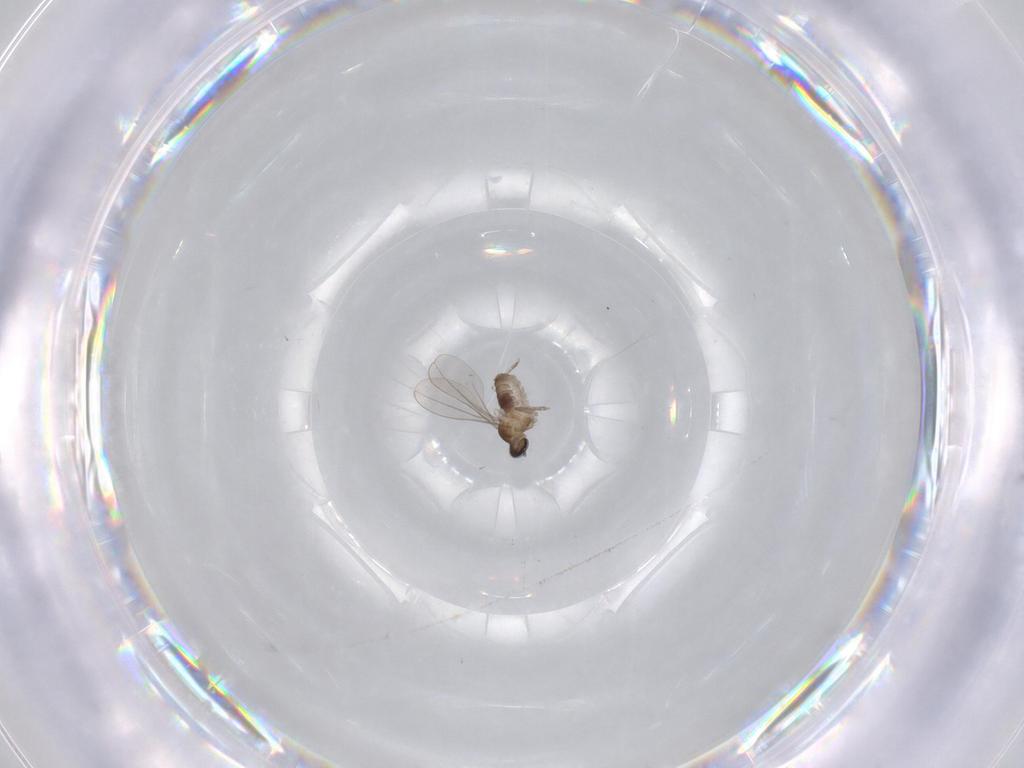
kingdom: Animalia
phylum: Arthropoda
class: Insecta
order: Diptera
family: Cecidomyiidae
